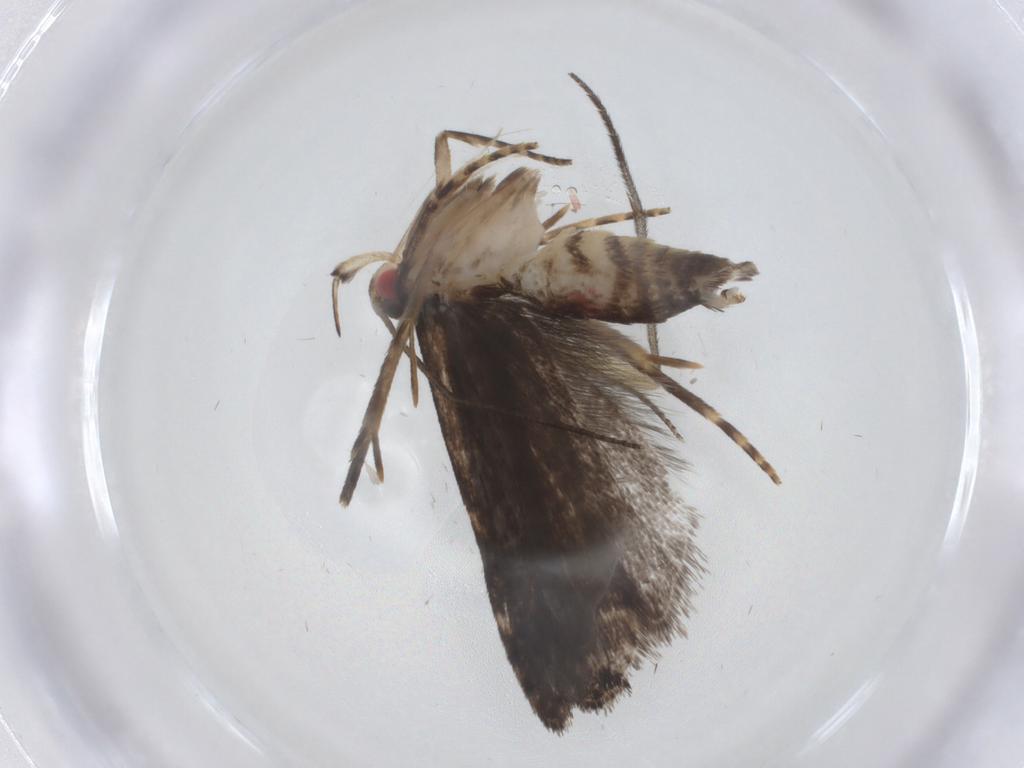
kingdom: Animalia
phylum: Arthropoda
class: Insecta
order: Lepidoptera
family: Gelechiidae
